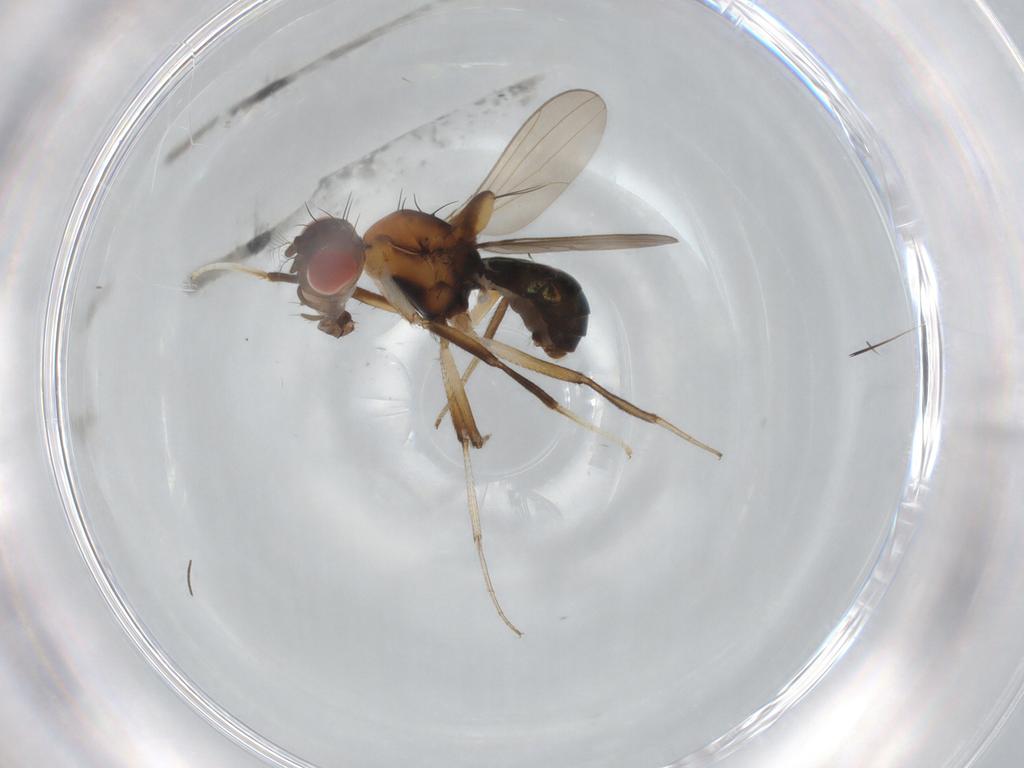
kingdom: Animalia
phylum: Arthropoda
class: Insecta
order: Diptera
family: Drosophilidae
